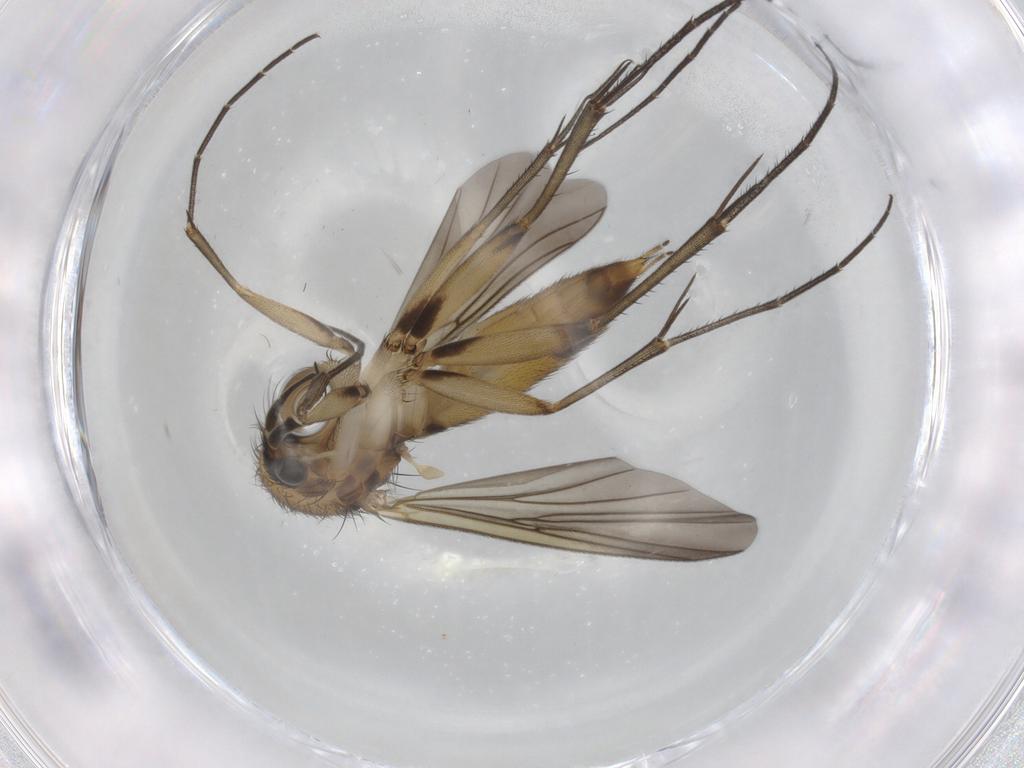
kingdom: Animalia
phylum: Arthropoda
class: Insecta
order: Diptera
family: Mycetophilidae
